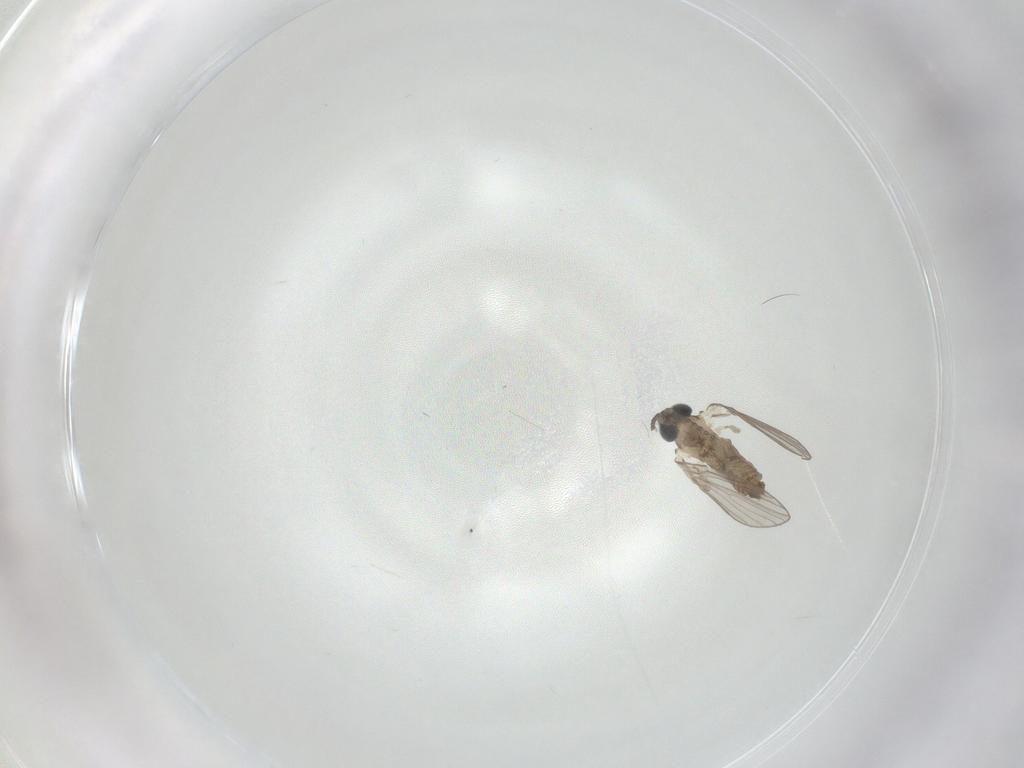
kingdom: Animalia
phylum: Arthropoda
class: Insecta
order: Diptera
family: Psychodidae
